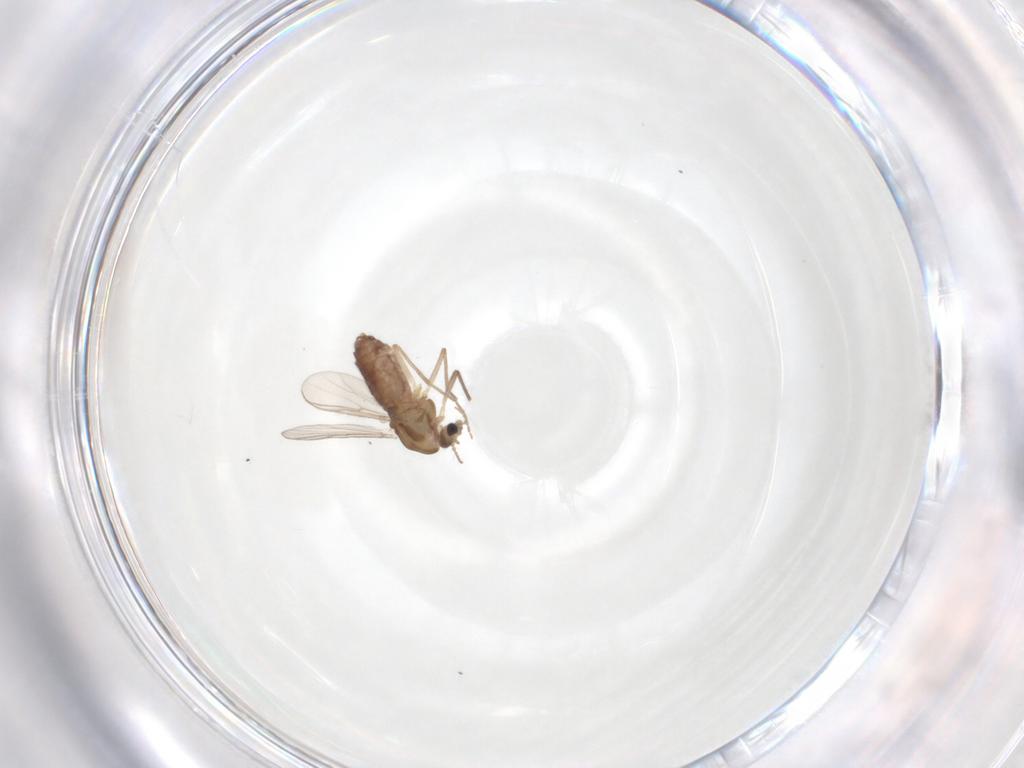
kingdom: Animalia
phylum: Arthropoda
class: Insecta
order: Diptera
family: Chironomidae
